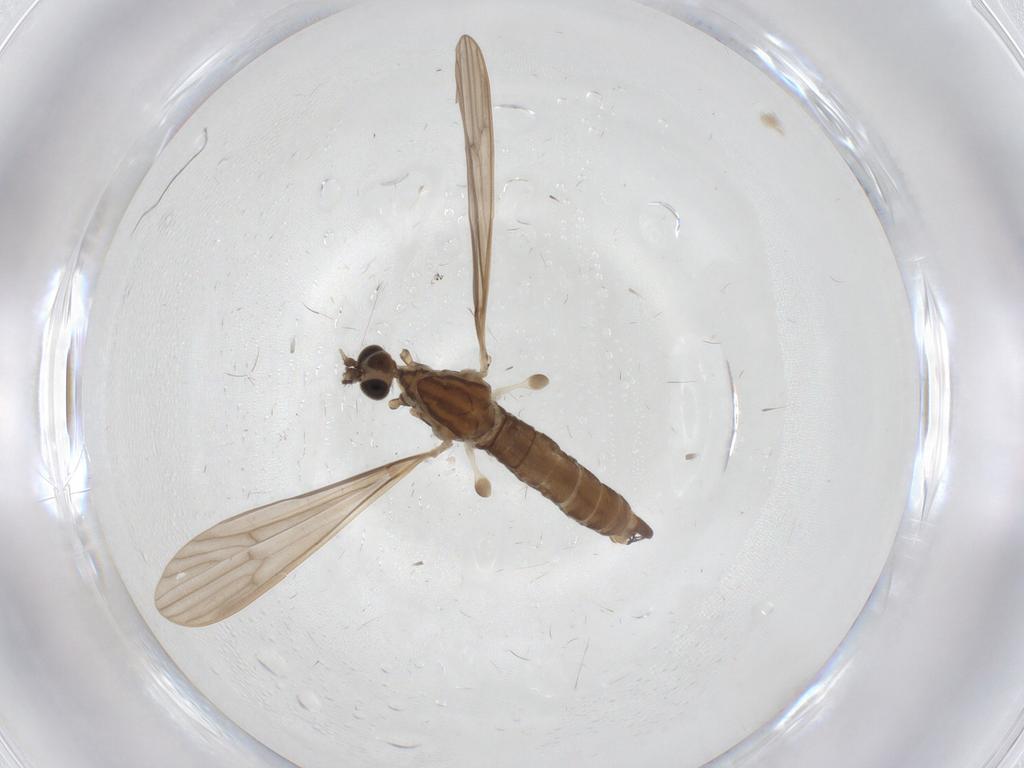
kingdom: Animalia
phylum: Arthropoda
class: Insecta
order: Diptera
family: Limoniidae
